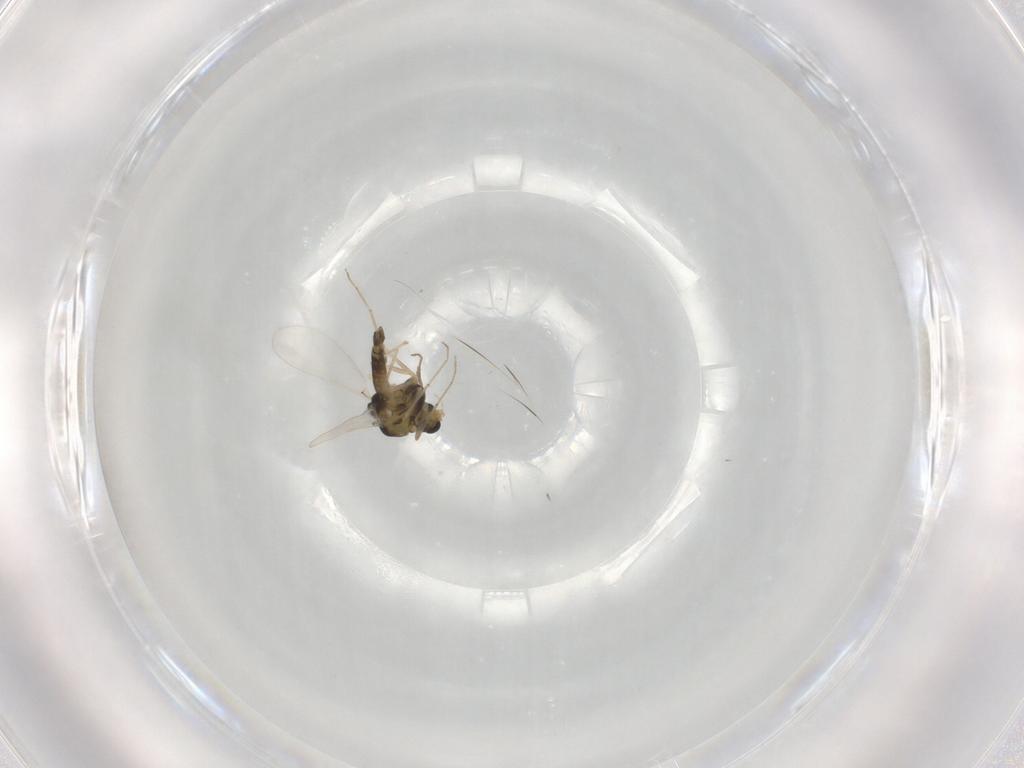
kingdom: Animalia
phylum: Arthropoda
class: Insecta
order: Diptera
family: Chironomidae
